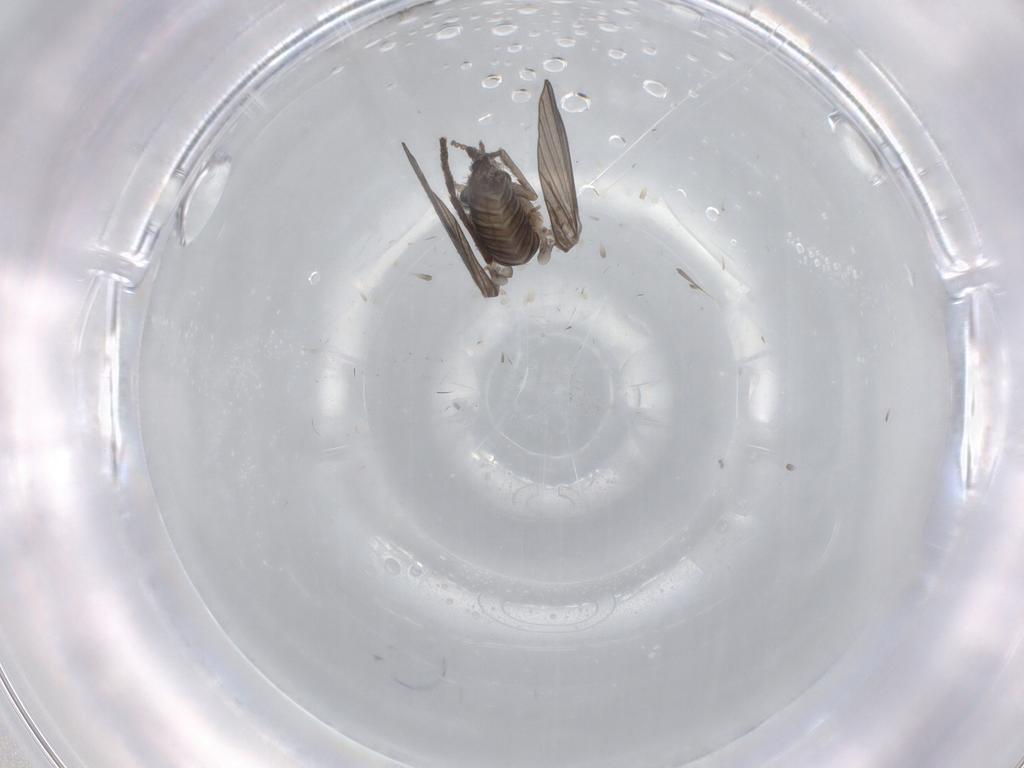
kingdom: Animalia
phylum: Arthropoda
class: Insecta
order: Diptera
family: Psychodidae
